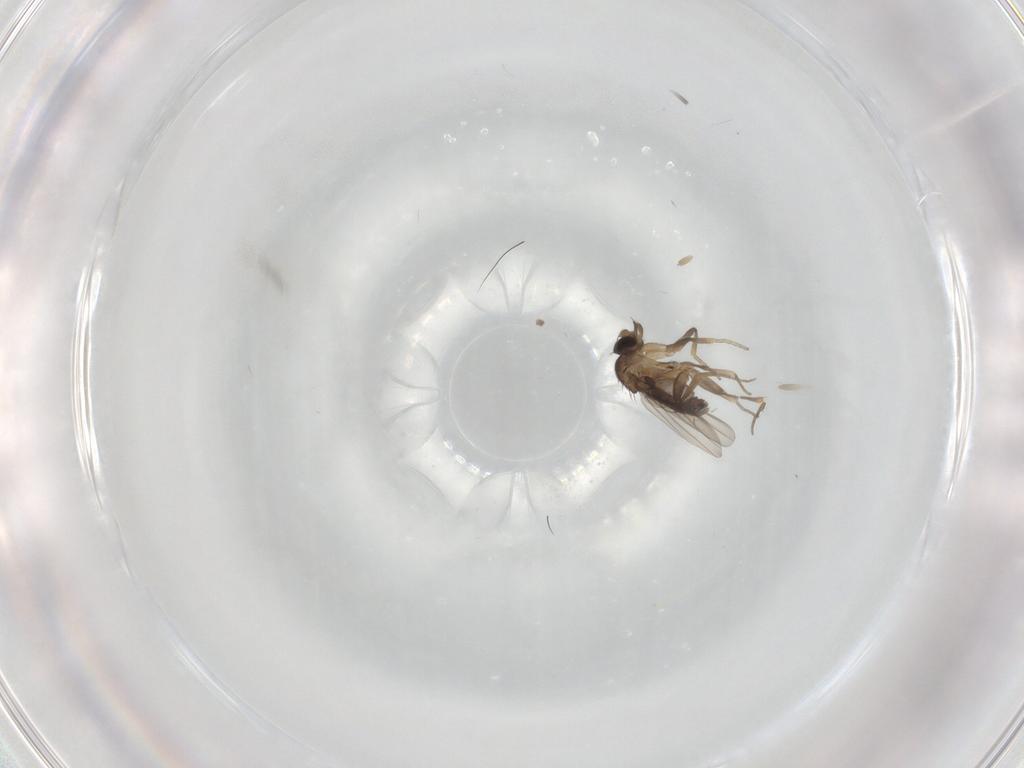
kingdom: Animalia
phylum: Arthropoda
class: Insecta
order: Diptera
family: Phoridae
